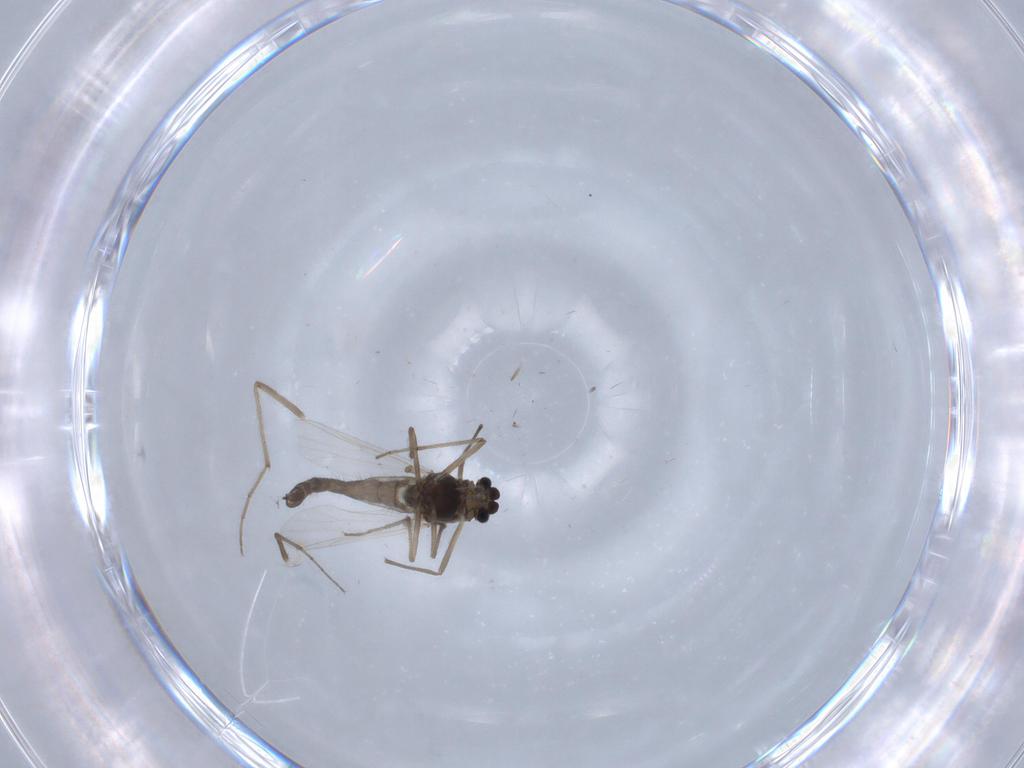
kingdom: Animalia
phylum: Arthropoda
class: Insecta
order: Diptera
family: Chironomidae
